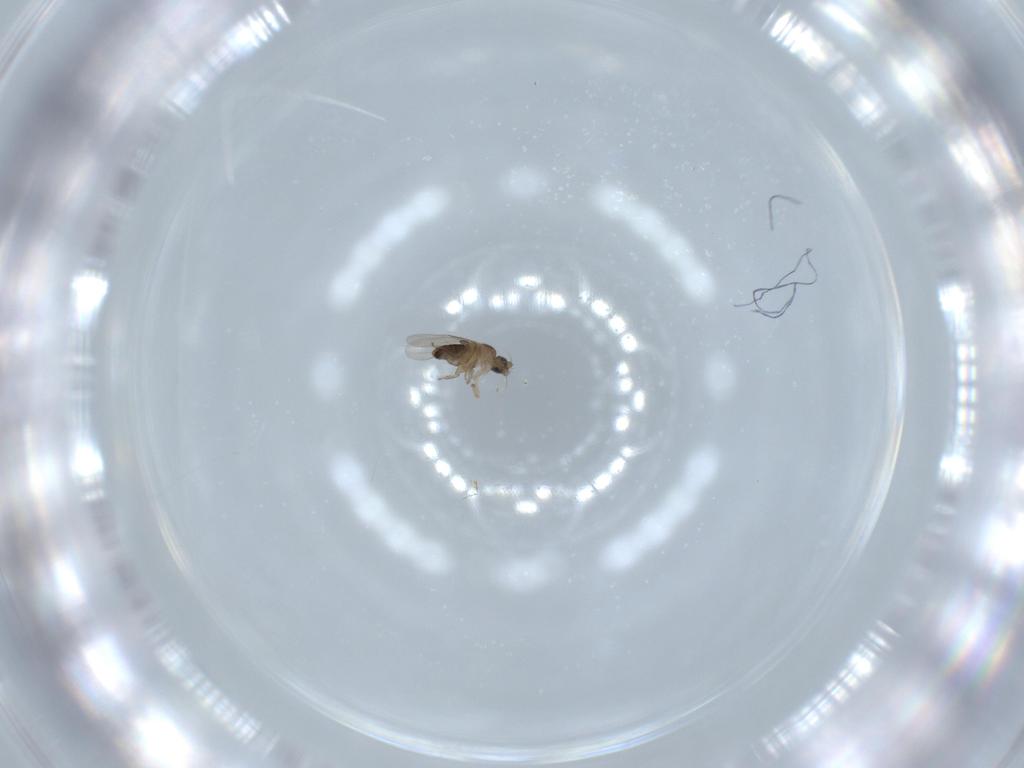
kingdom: Animalia
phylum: Arthropoda
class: Insecta
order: Diptera
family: Phoridae
